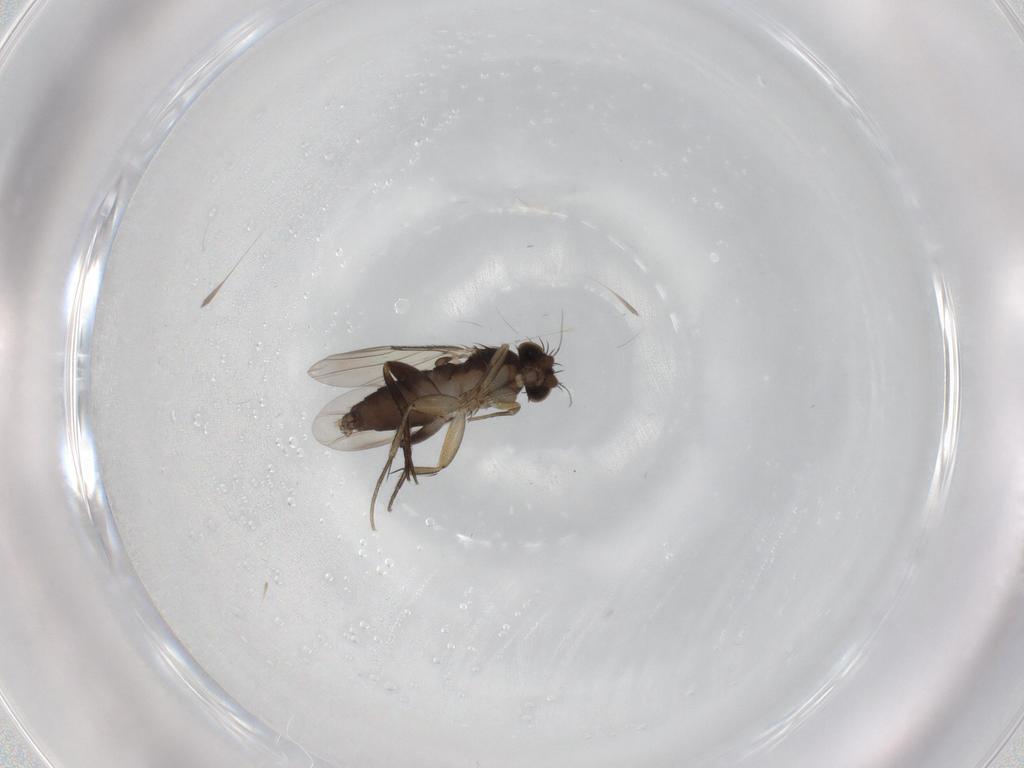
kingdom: Animalia
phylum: Arthropoda
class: Insecta
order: Diptera
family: Phoridae
